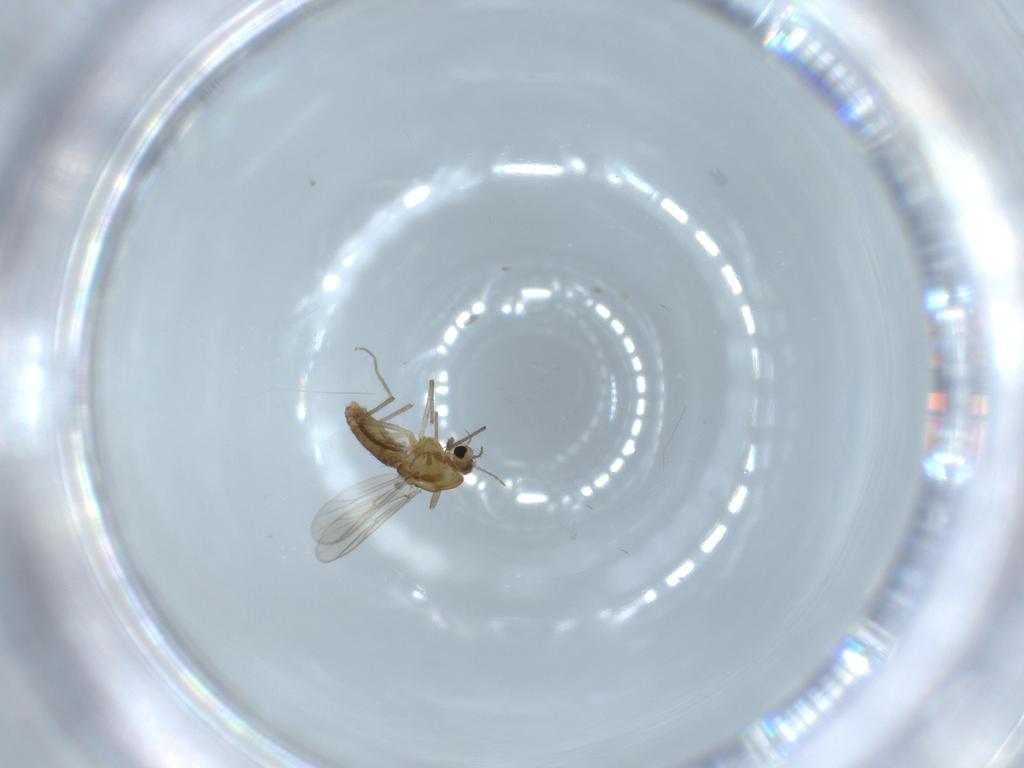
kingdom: Animalia
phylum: Arthropoda
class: Insecta
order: Diptera
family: Chironomidae
